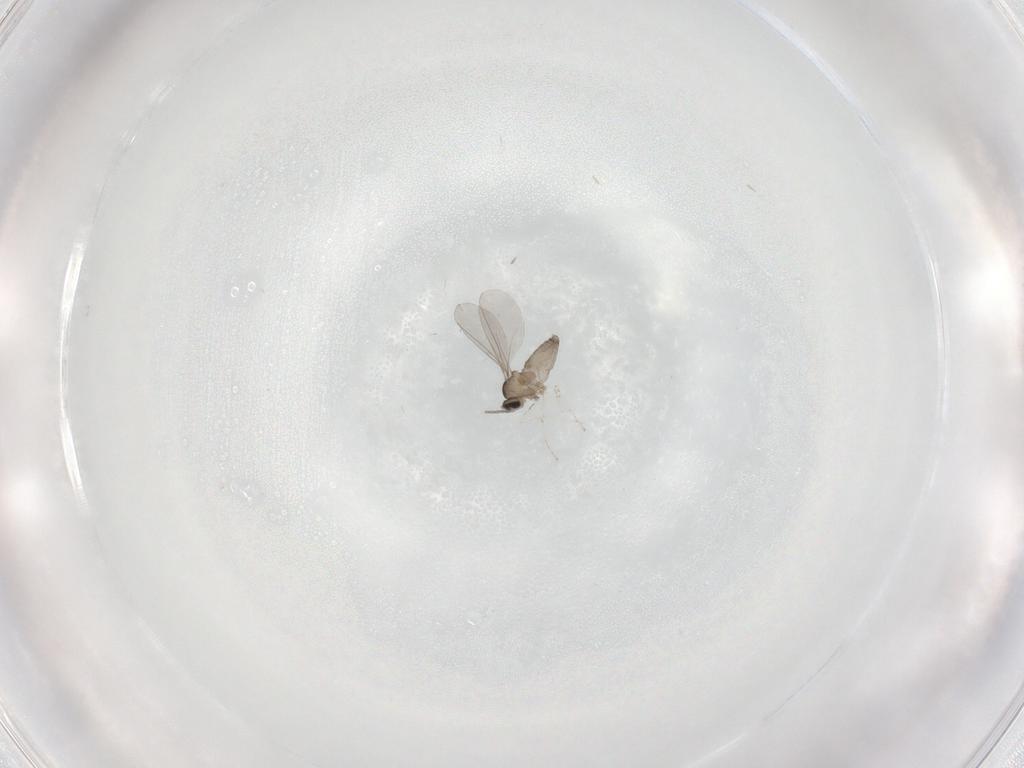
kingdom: Animalia
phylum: Arthropoda
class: Insecta
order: Diptera
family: Cecidomyiidae
